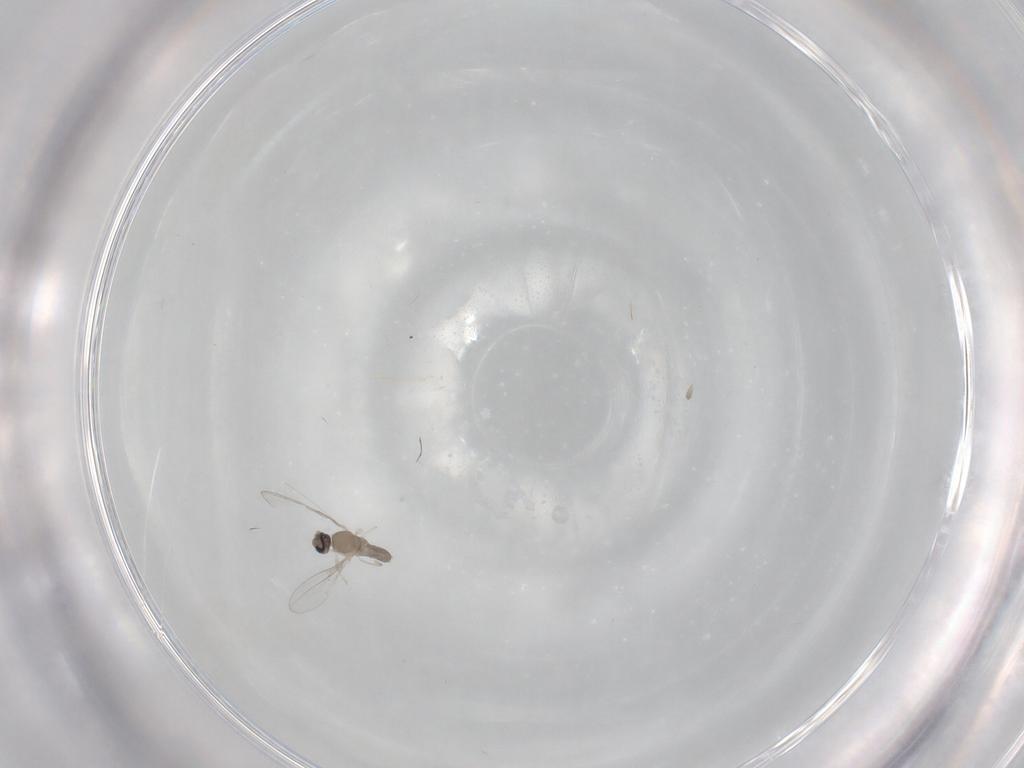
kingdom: Animalia
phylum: Arthropoda
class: Insecta
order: Diptera
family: Cecidomyiidae
